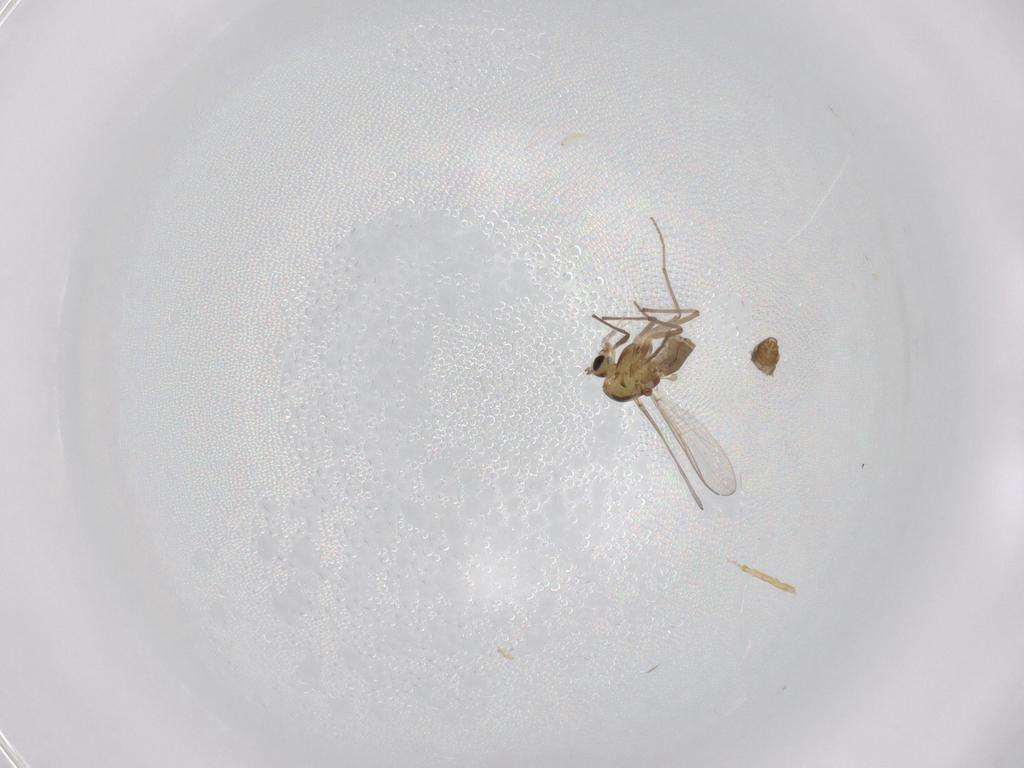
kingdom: Animalia
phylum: Arthropoda
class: Insecta
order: Diptera
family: Chironomidae
